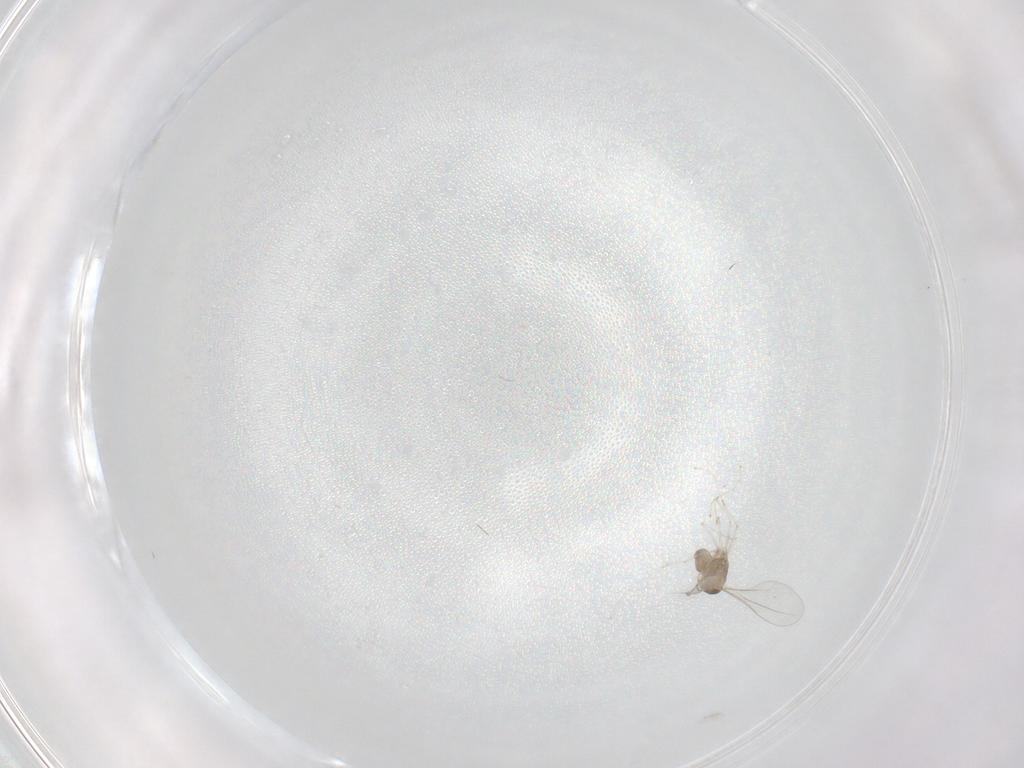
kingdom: Animalia
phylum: Arthropoda
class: Insecta
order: Diptera
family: Cecidomyiidae
